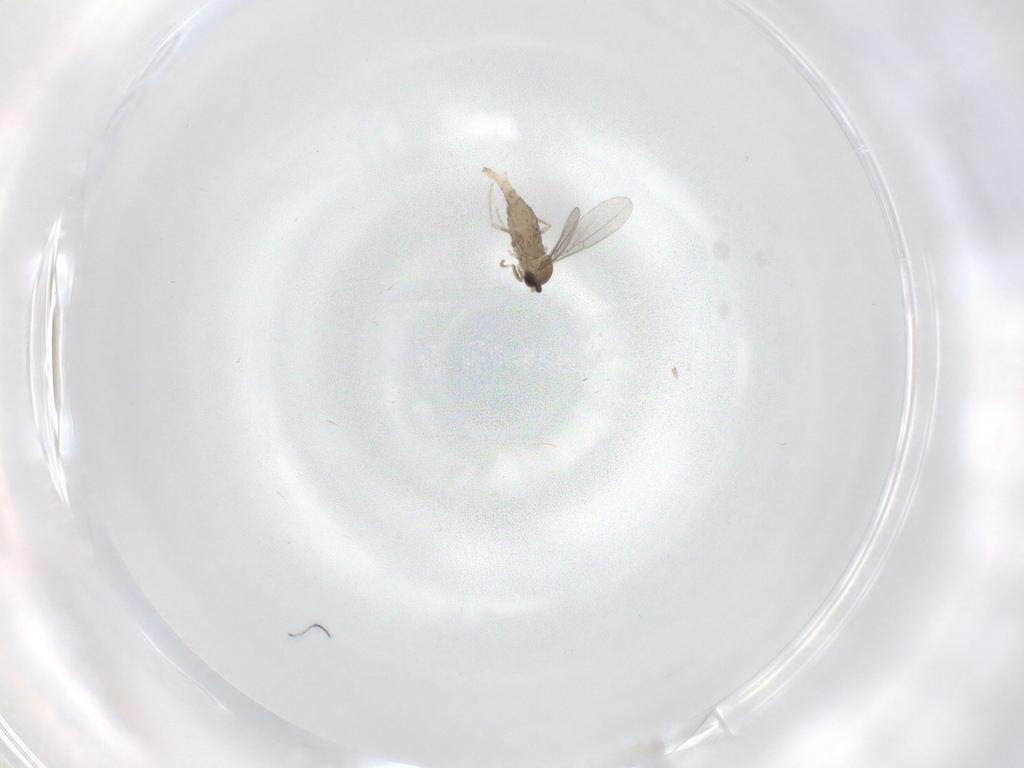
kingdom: Animalia
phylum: Arthropoda
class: Insecta
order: Diptera
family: Cecidomyiidae
